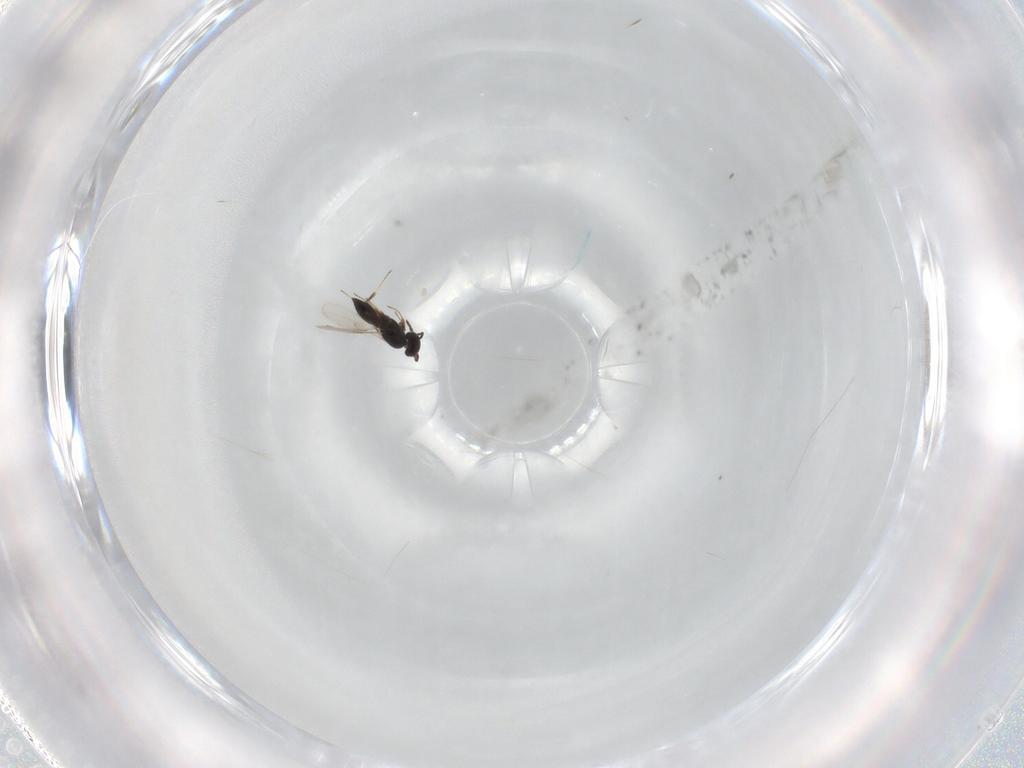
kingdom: Animalia
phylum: Arthropoda
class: Insecta
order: Hymenoptera
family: Scelionidae
